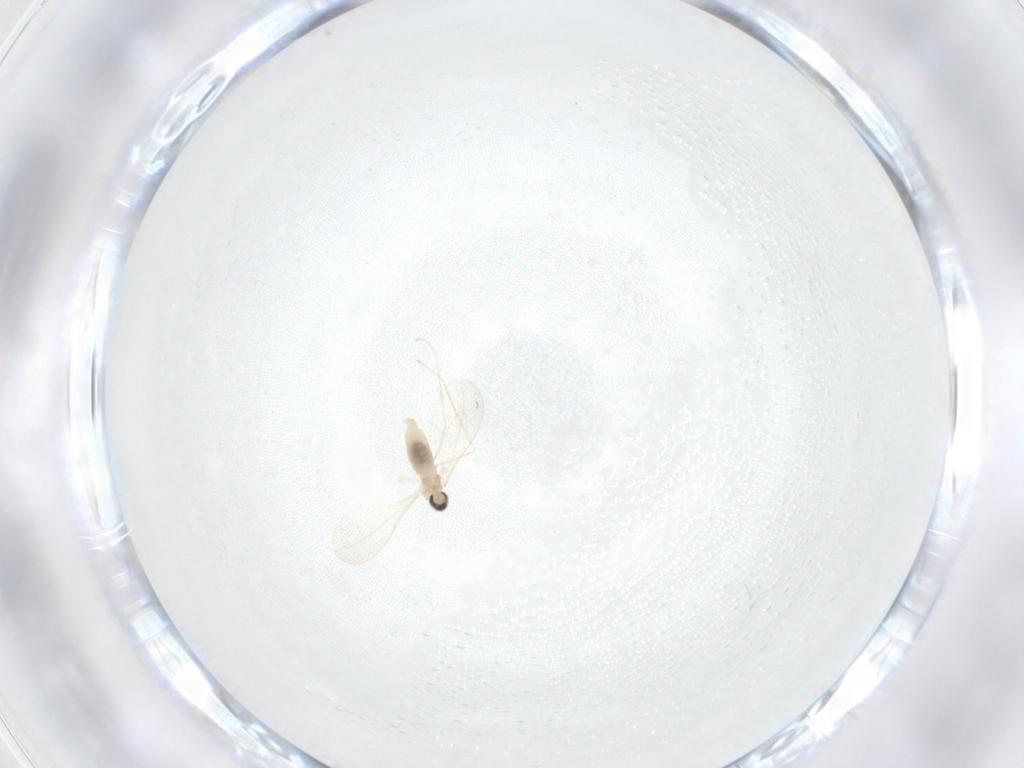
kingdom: Animalia
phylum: Arthropoda
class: Insecta
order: Diptera
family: Cecidomyiidae
